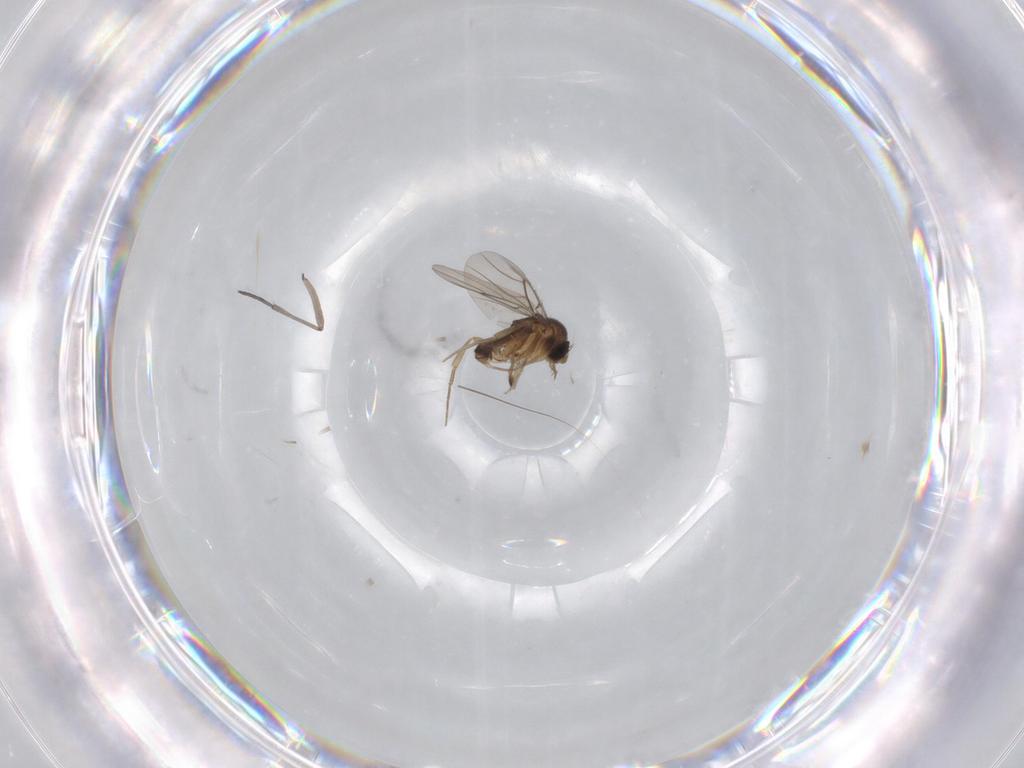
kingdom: Animalia
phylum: Arthropoda
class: Insecta
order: Diptera
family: Phoridae
